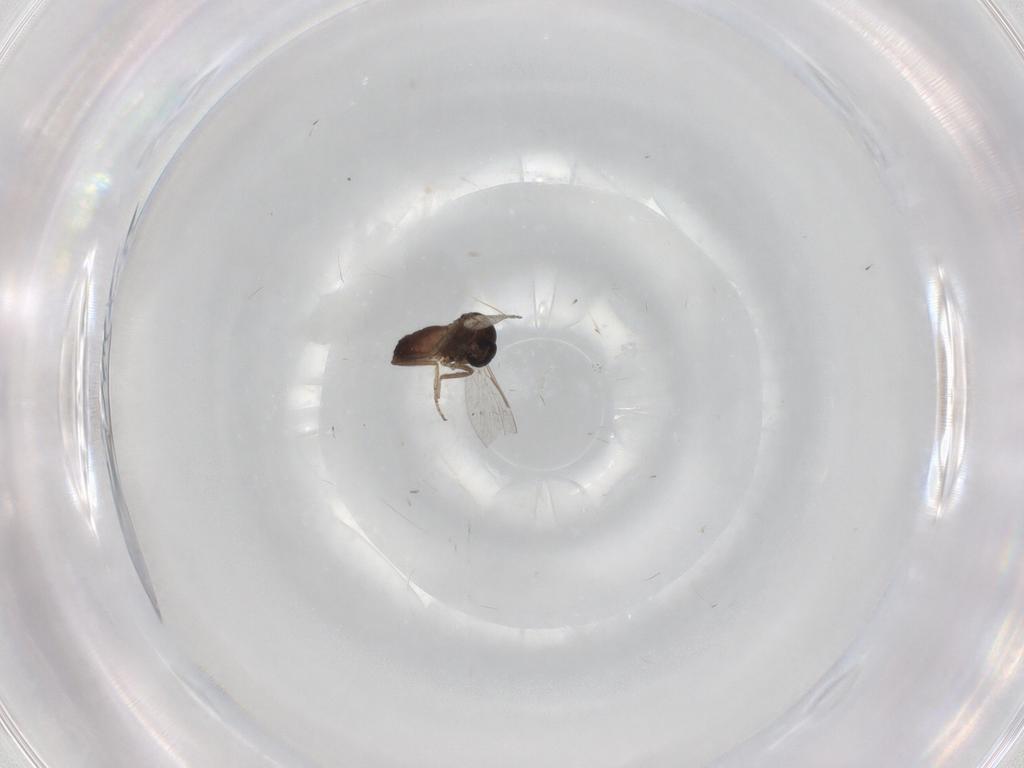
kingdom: Animalia
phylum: Arthropoda
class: Insecta
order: Diptera
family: Ceratopogonidae
